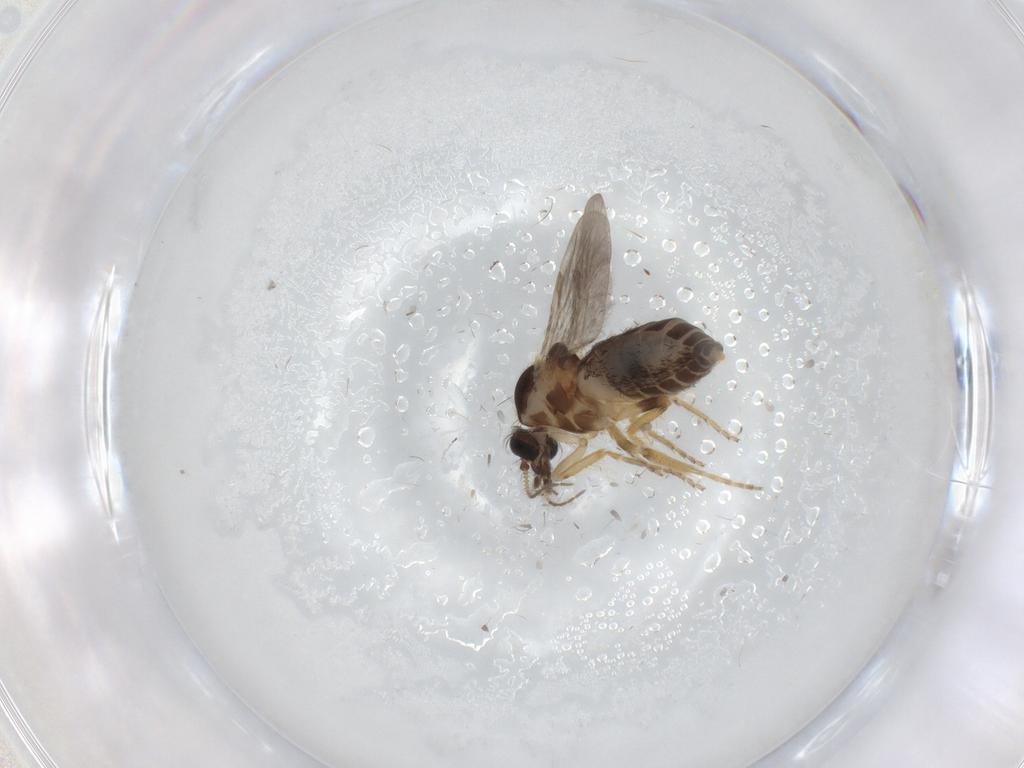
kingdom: Animalia
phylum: Arthropoda
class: Insecta
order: Diptera
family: Ceratopogonidae
